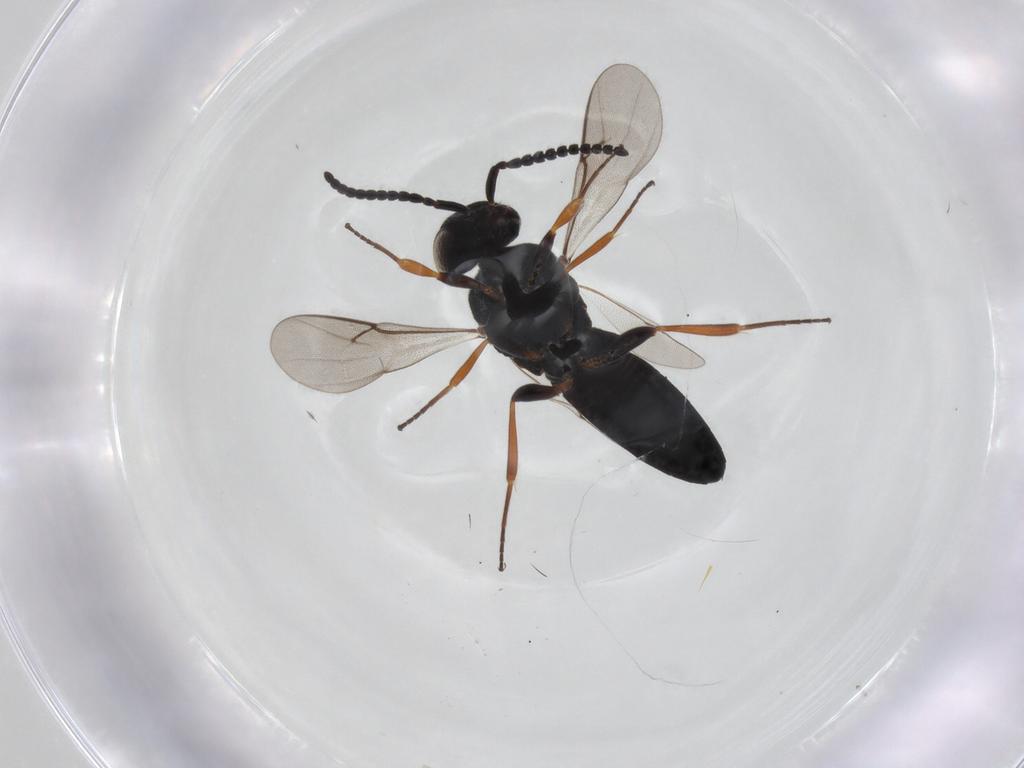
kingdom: Animalia
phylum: Arthropoda
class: Insecta
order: Hymenoptera
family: Scelionidae
